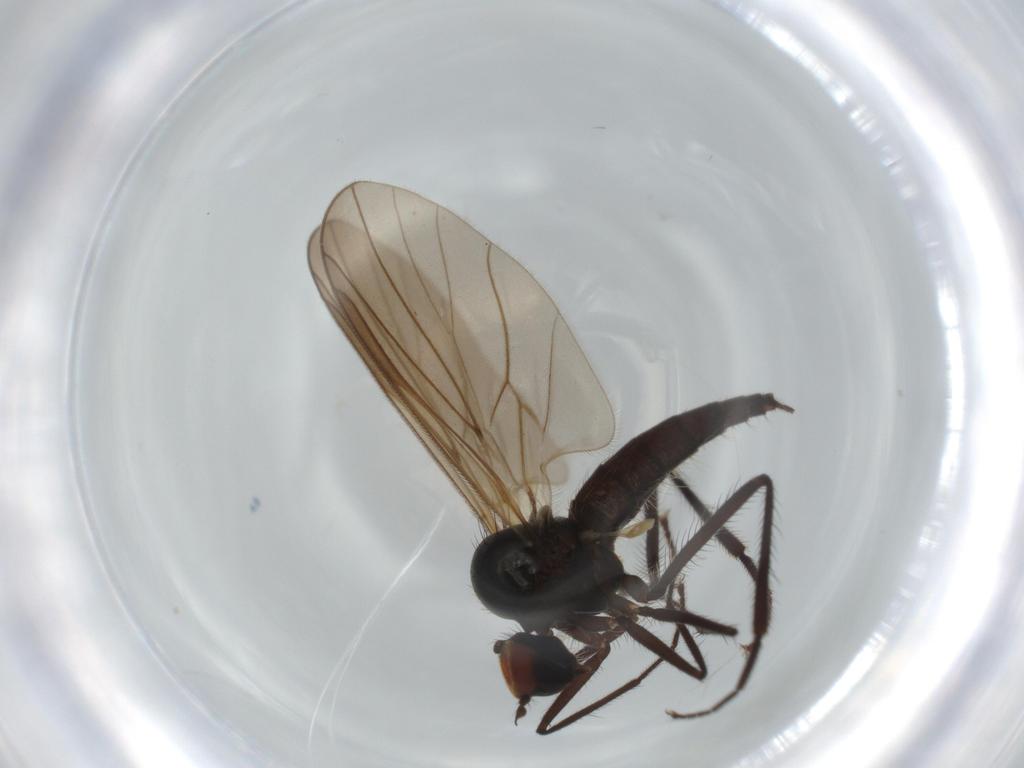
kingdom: Animalia
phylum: Arthropoda
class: Insecta
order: Diptera
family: Hybotidae
